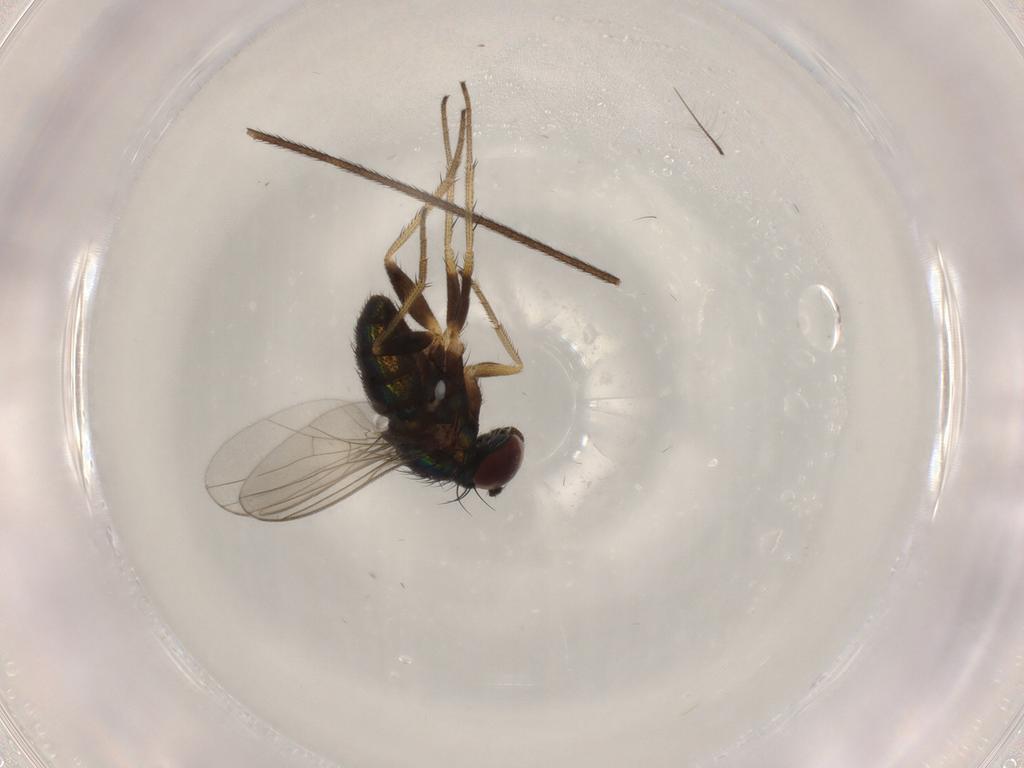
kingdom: Animalia
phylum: Arthropoda
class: Insecta
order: Diptera
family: Dolichopodidae
